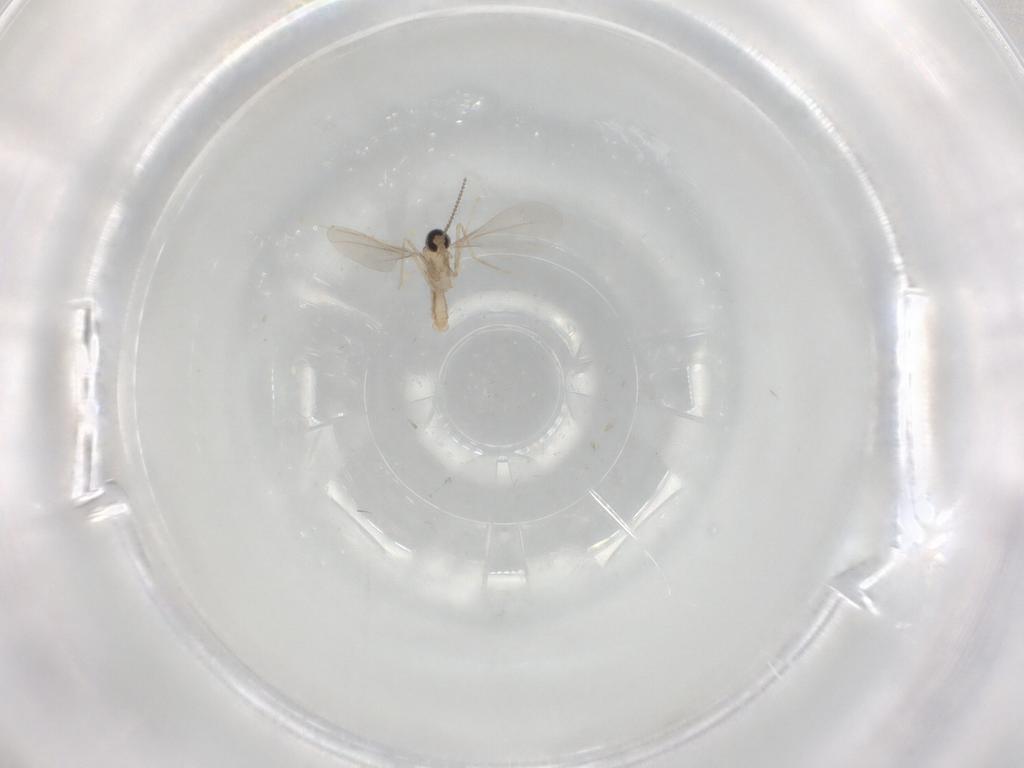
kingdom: Animalia
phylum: Arthropoda
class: Insecta
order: Diptera
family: Cecidomyiidae
